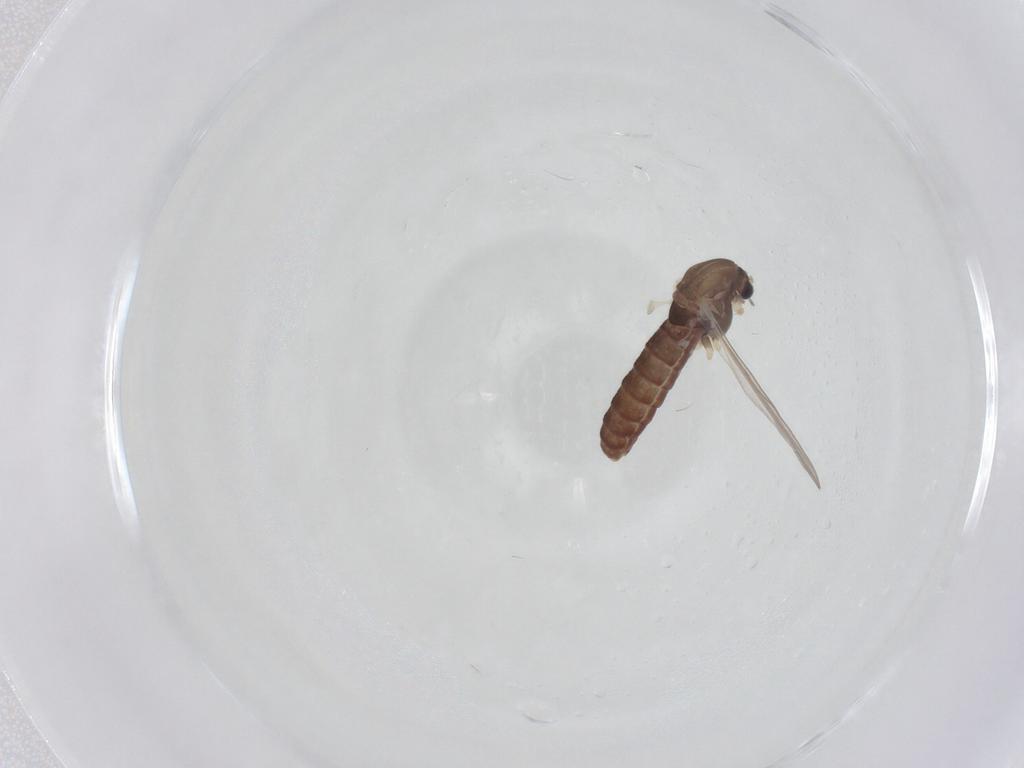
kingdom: Animalia
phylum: Arthropoda
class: Insecta
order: Diptera
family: Chironomidae
